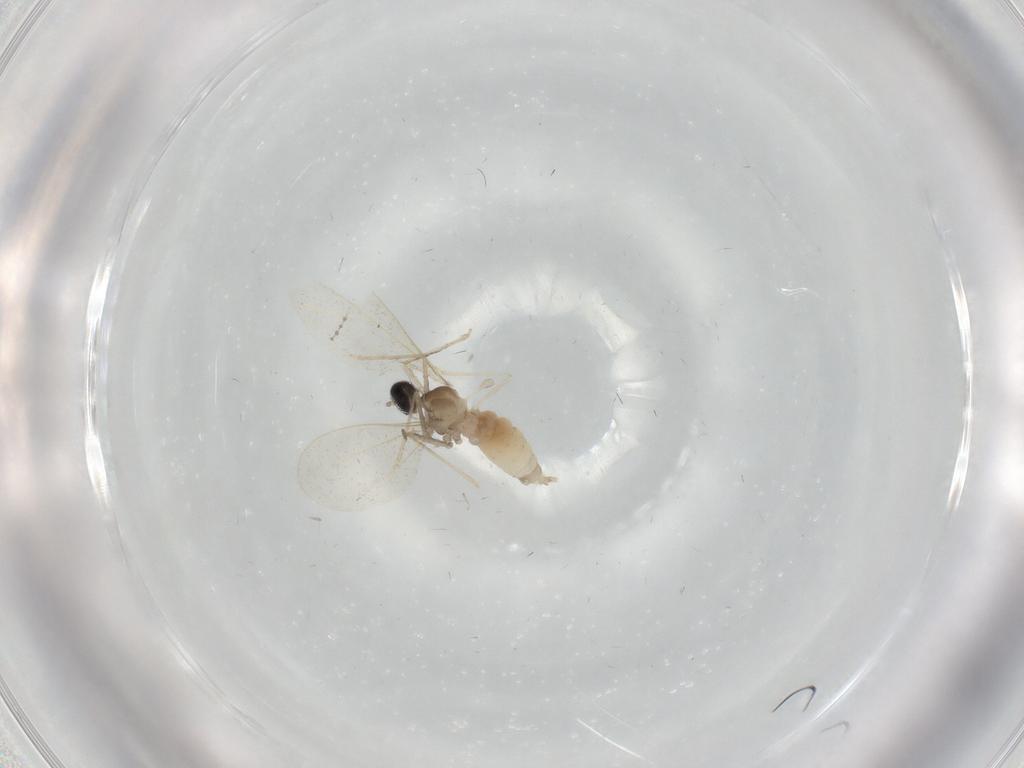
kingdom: Animalia
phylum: Arthropoda
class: Insecta
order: Diptera
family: Cecidomyiidae
